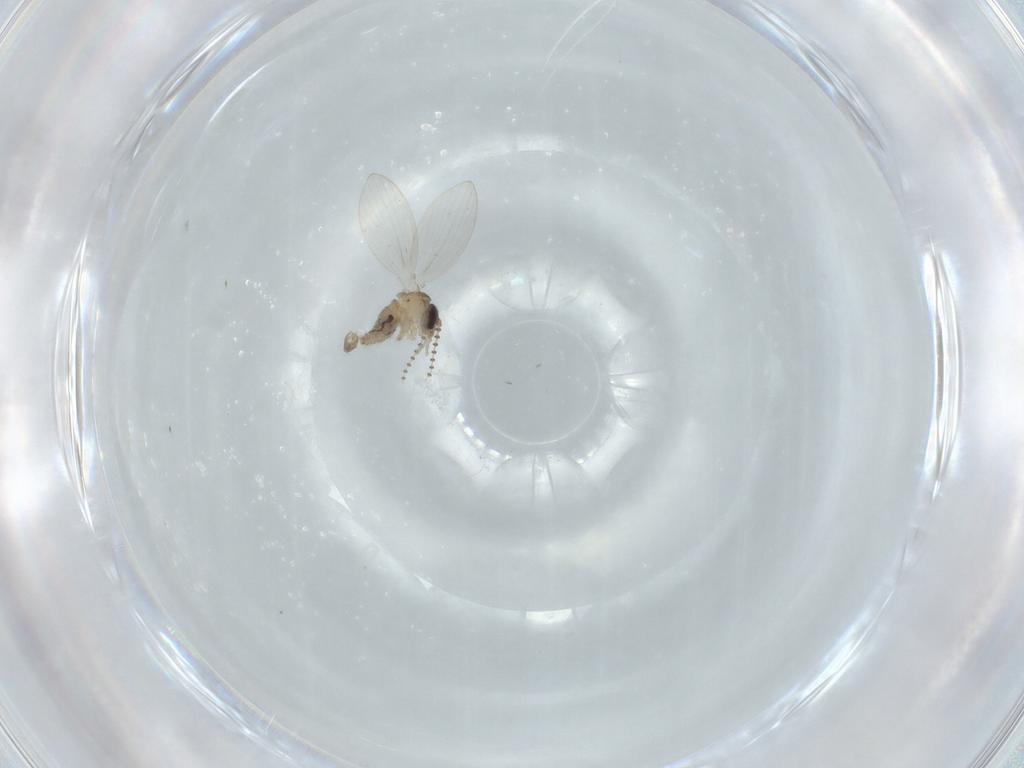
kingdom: Animalia
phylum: Arthropoda
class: Insecta
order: Diptera
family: Psychodidae
